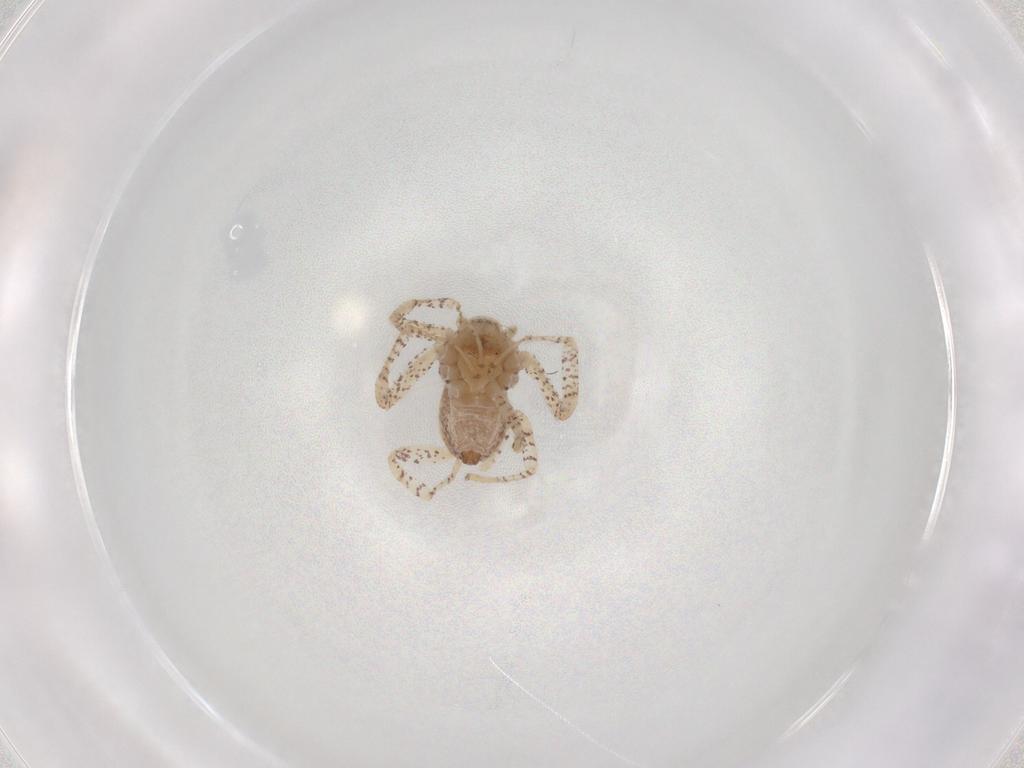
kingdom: Animalia
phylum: Arthropoda
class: Arachnida
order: Araneae
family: Philodromidae
